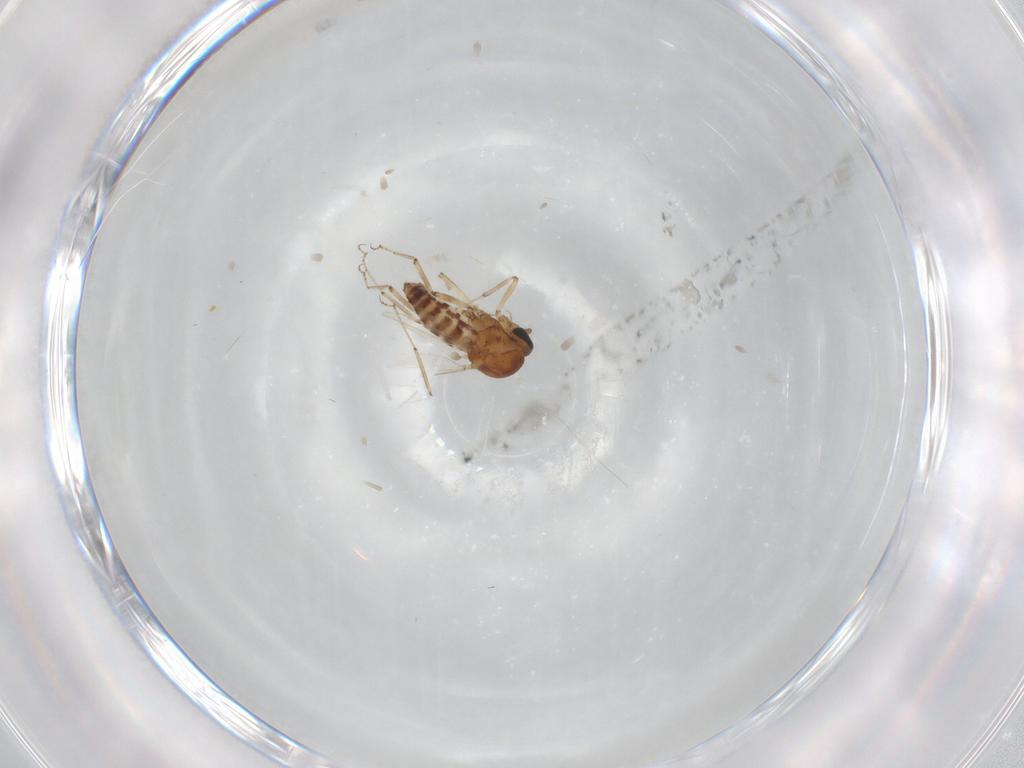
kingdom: Animalia
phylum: Arthropoda
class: Insecta
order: Diptera
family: Ceratopogonidae
